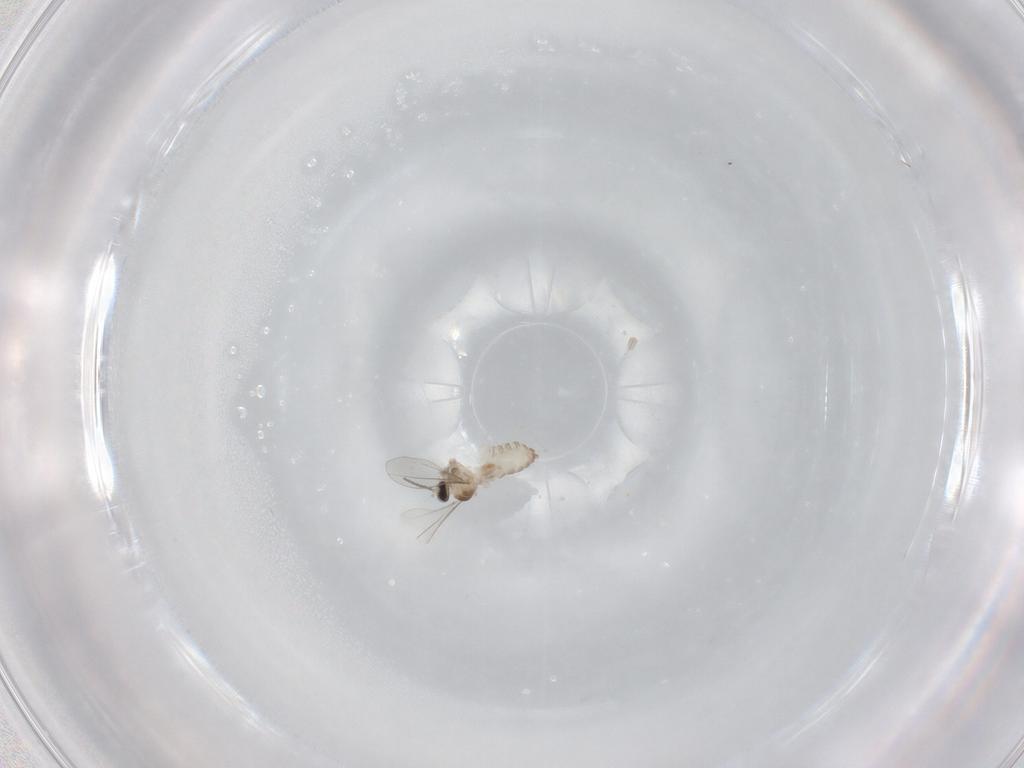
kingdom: Animalia
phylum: Arthropoda
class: Insecta
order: Diptera
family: Cecidomyiidae
